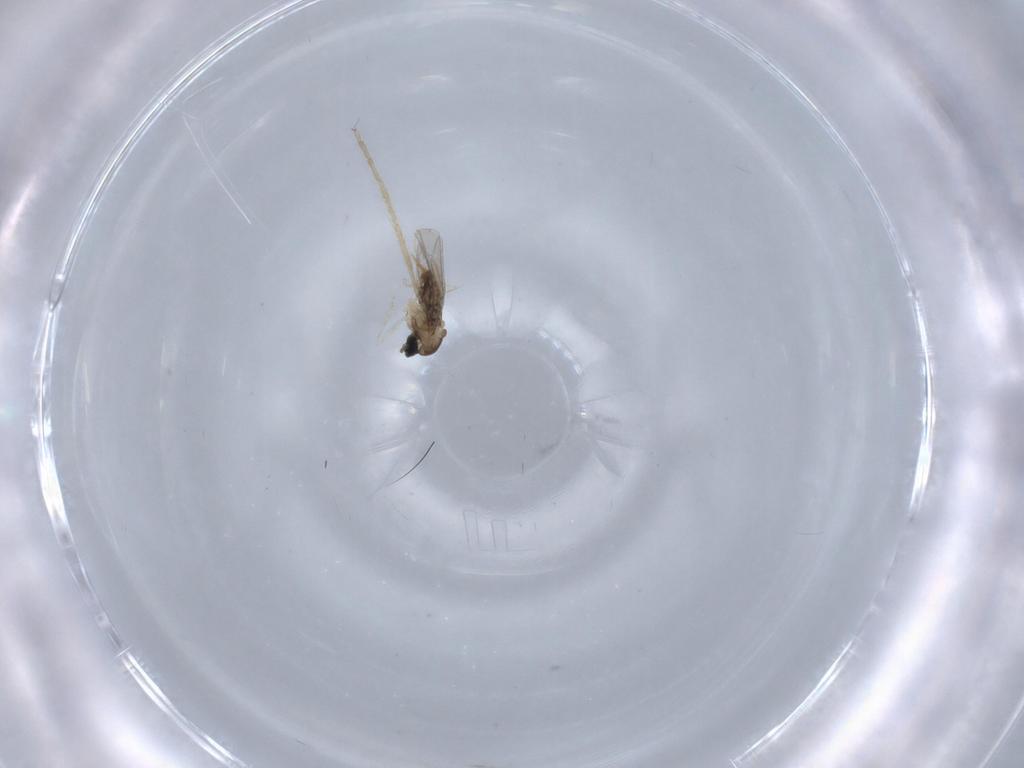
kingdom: Animalia
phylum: Arthropoda
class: Insecta
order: Diptera
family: Cecidomyiidae
